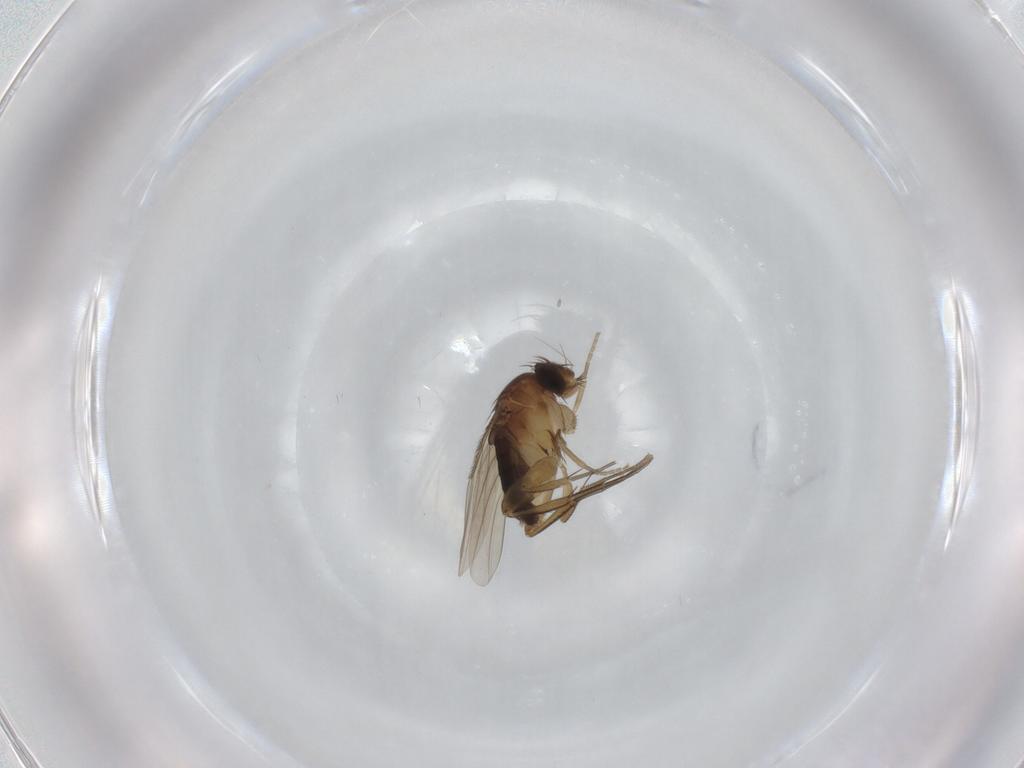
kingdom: Animalia
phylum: Arthropoda
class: Insecta
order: Diptera
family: Phoridae
